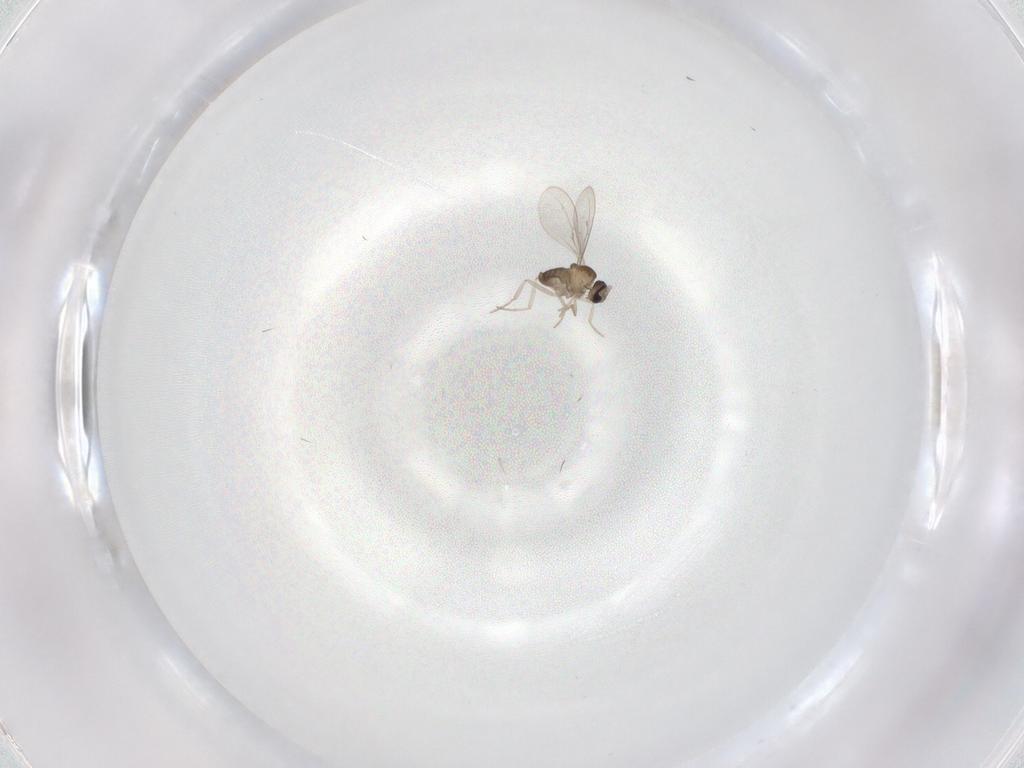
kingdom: Animalia
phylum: Arthropoda
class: Insecta
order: Diptera
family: Cecidomyiidae
